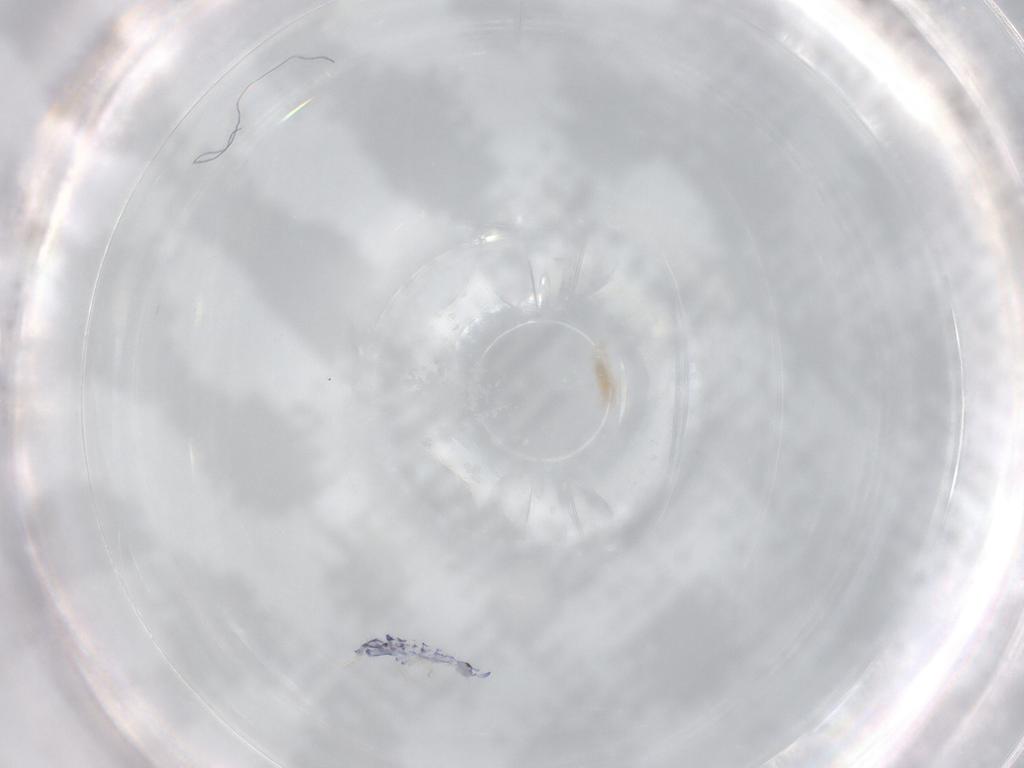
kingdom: Animalia
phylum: Arthropoda
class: Collembola
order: Entomobryomorpha
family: Entomobryidae
